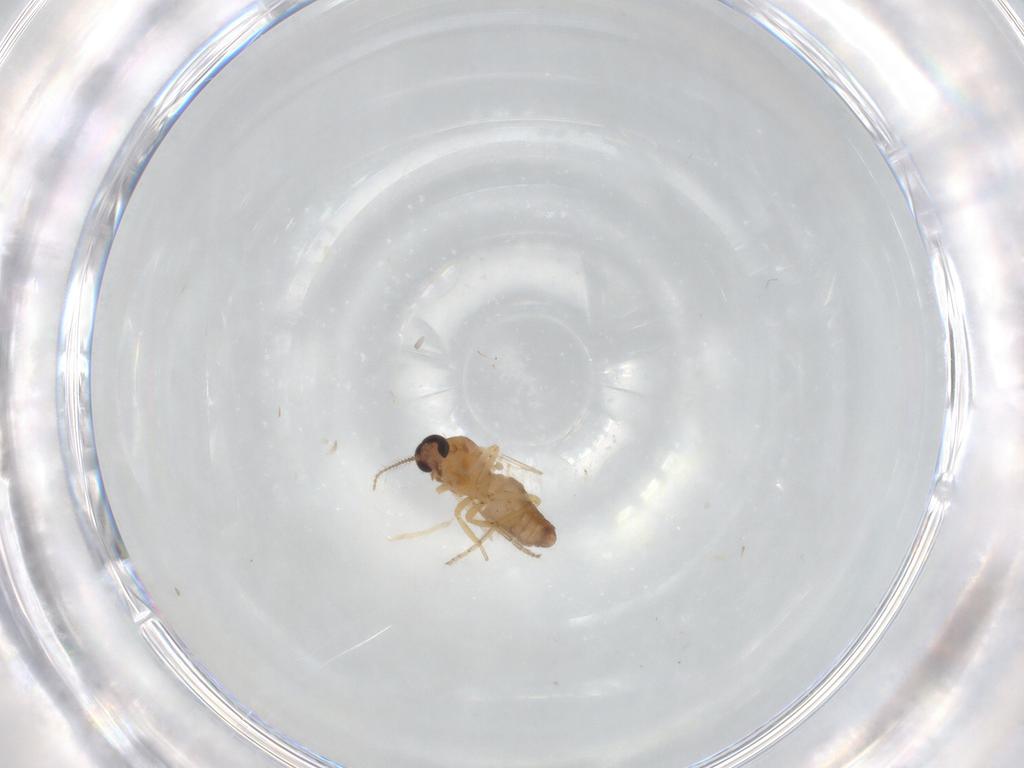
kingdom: Animalia
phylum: Arthropoda
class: Insecta
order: Diptera
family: Ceratopogonidae
